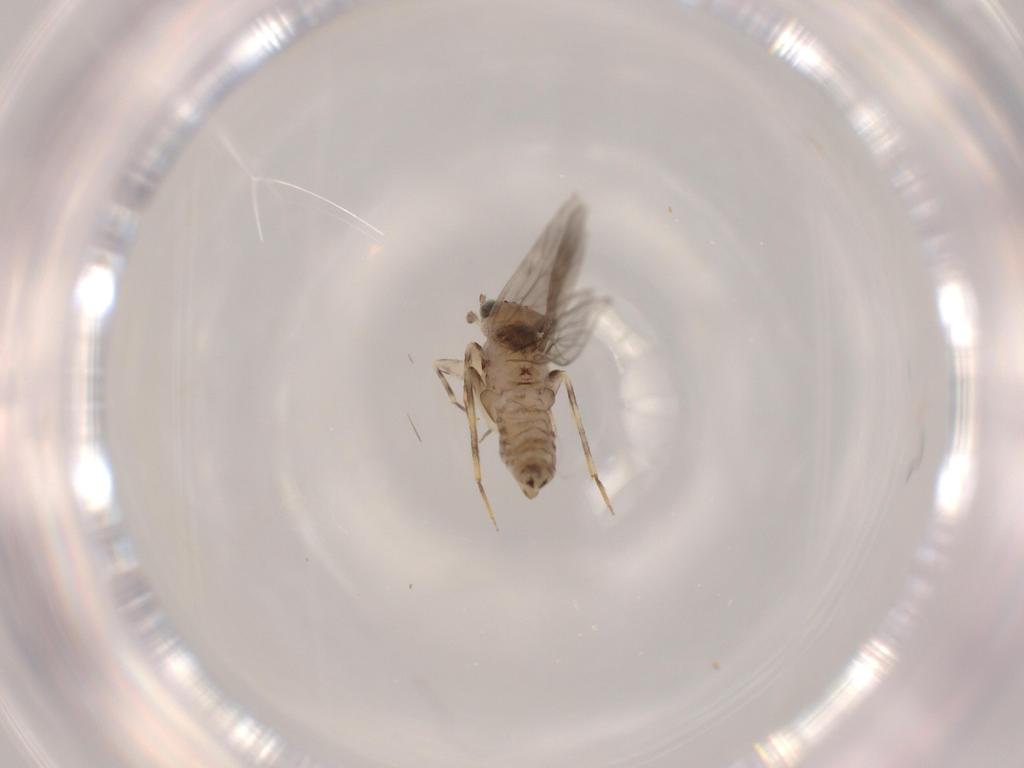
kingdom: Animalia
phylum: Arthropoda
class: Insecta
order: Psocodea
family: Lepidopsocidae
